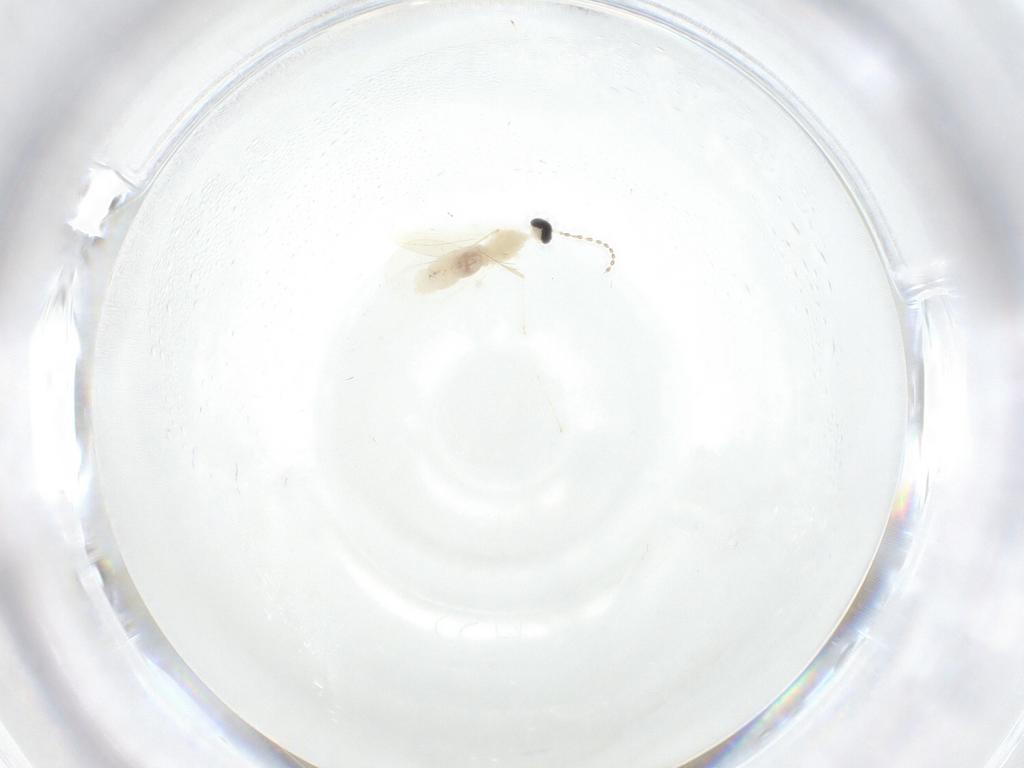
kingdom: Animalia
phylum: Arthropoda
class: Insecta
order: Diptera
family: Cecidomyiidae
